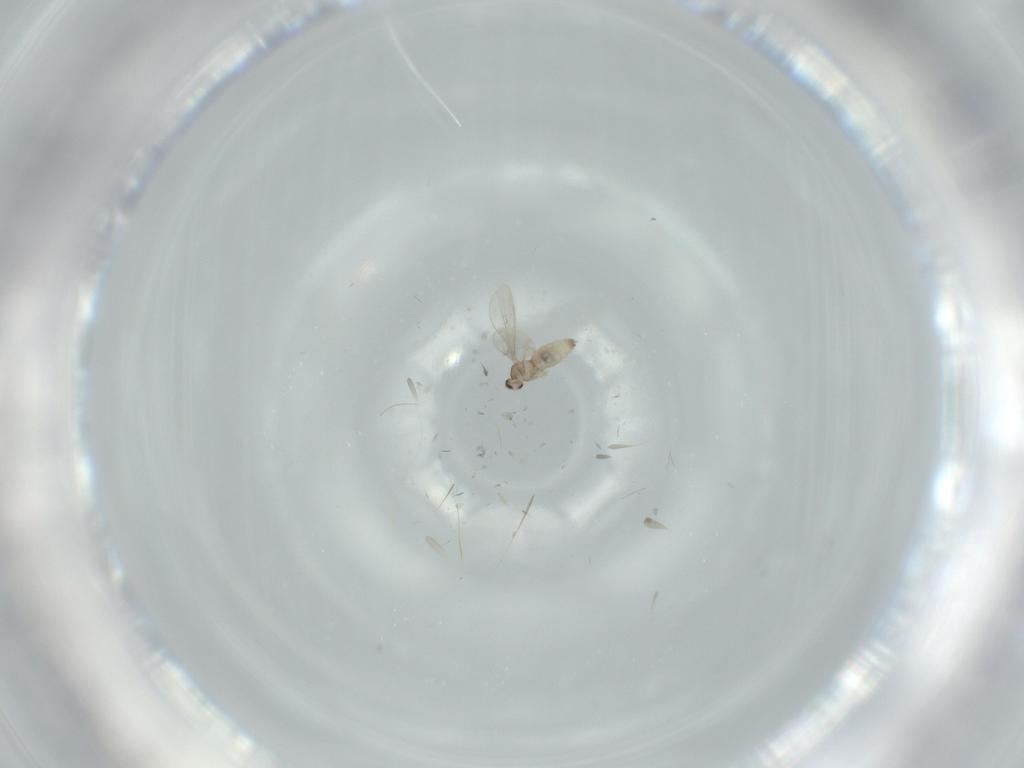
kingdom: Animalia
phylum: Arthropoda
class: Insecta
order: Diptera
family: Cecidomyiidae
